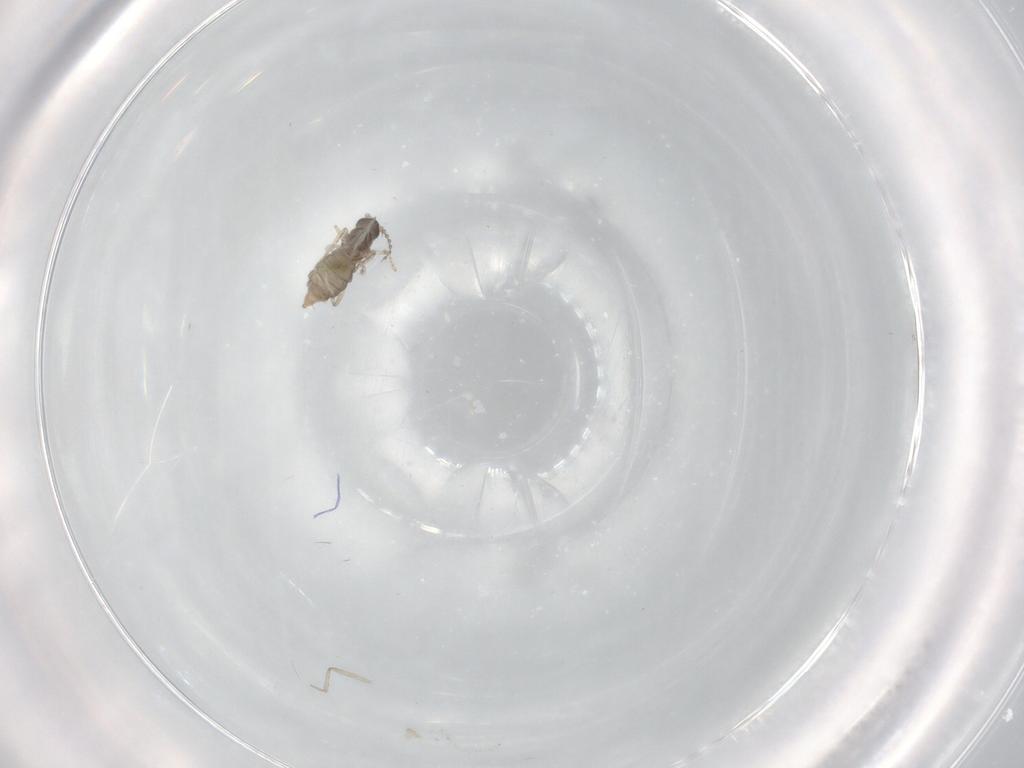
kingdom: Animalia
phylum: Arthropoda
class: Insecta
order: Diptera
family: Cecidomyiidae
